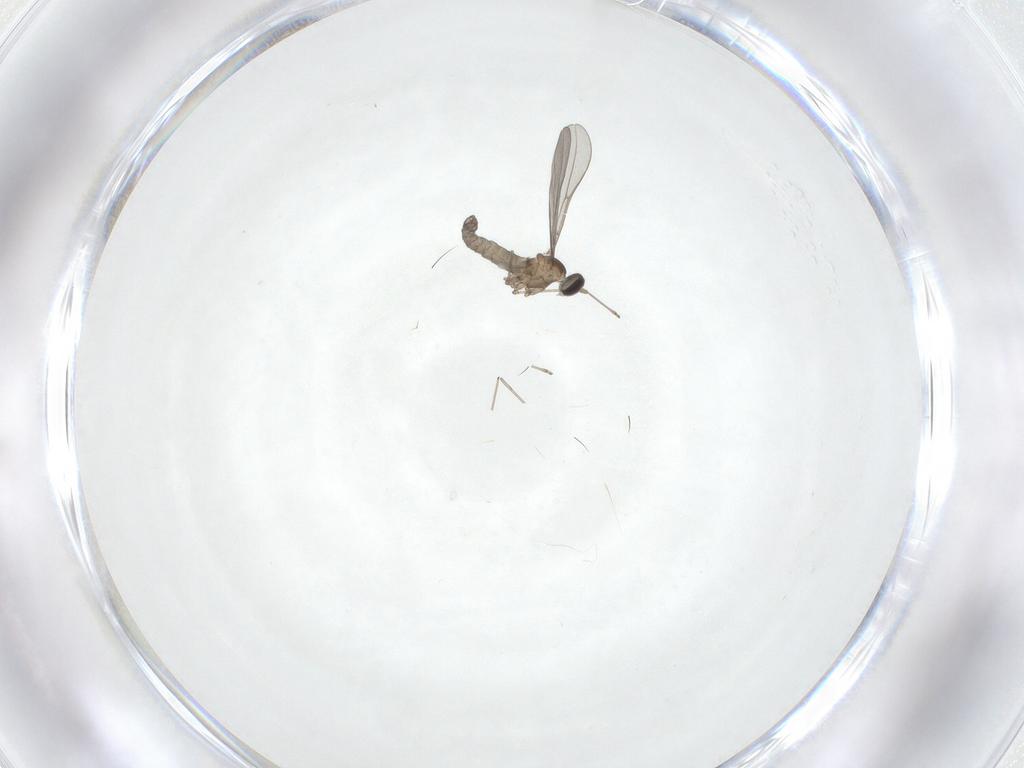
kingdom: Animalia
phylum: Arthropoda
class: Insecta
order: Diptera
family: Cecidomyiidae
